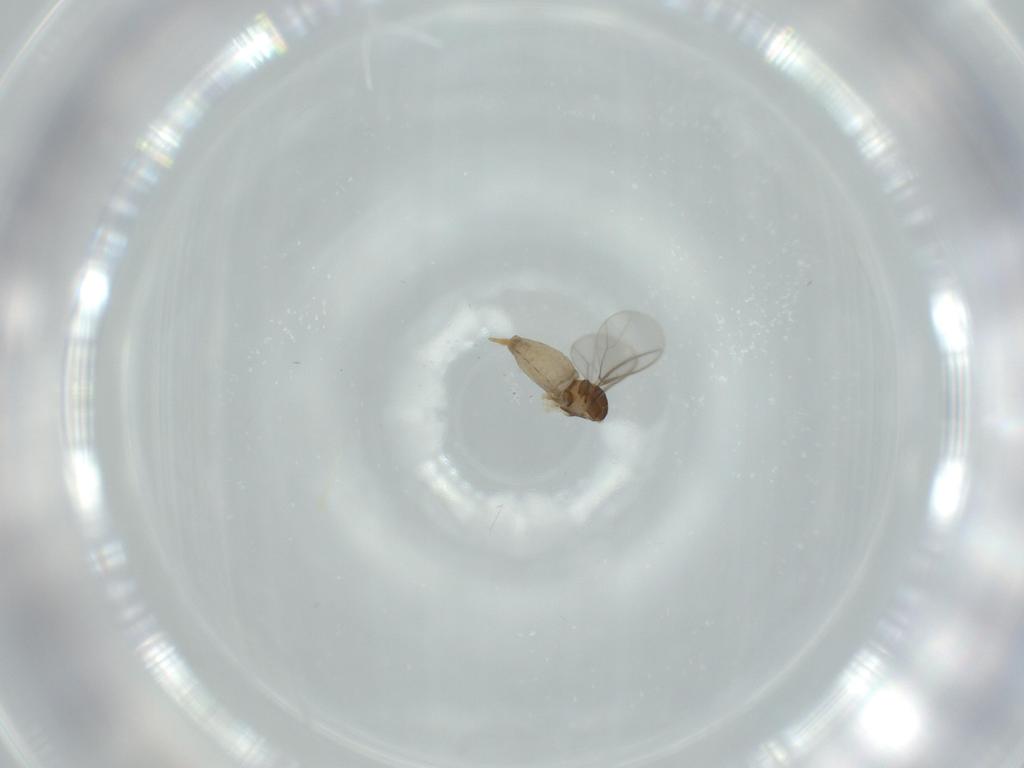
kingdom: Animalia
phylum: Arthropoda
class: Insecta
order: Diptera
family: Cecidomyiidae
